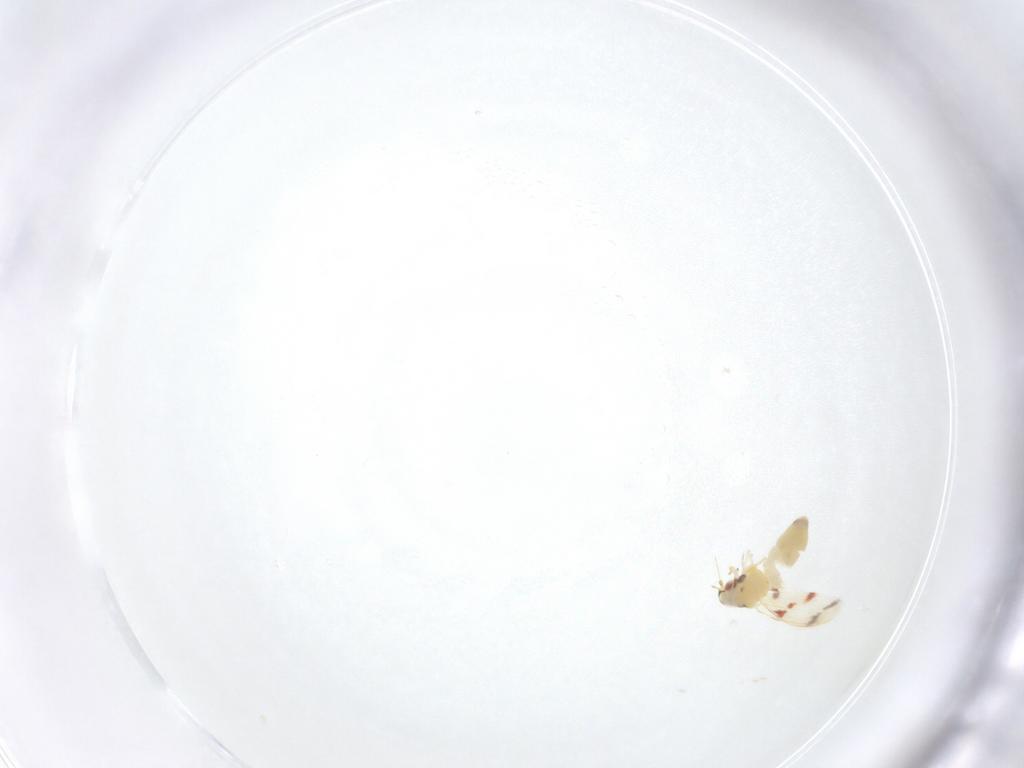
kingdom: Animalia
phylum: Arthropoda
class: Insecta
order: Hemiptera
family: Aleyrodidae
